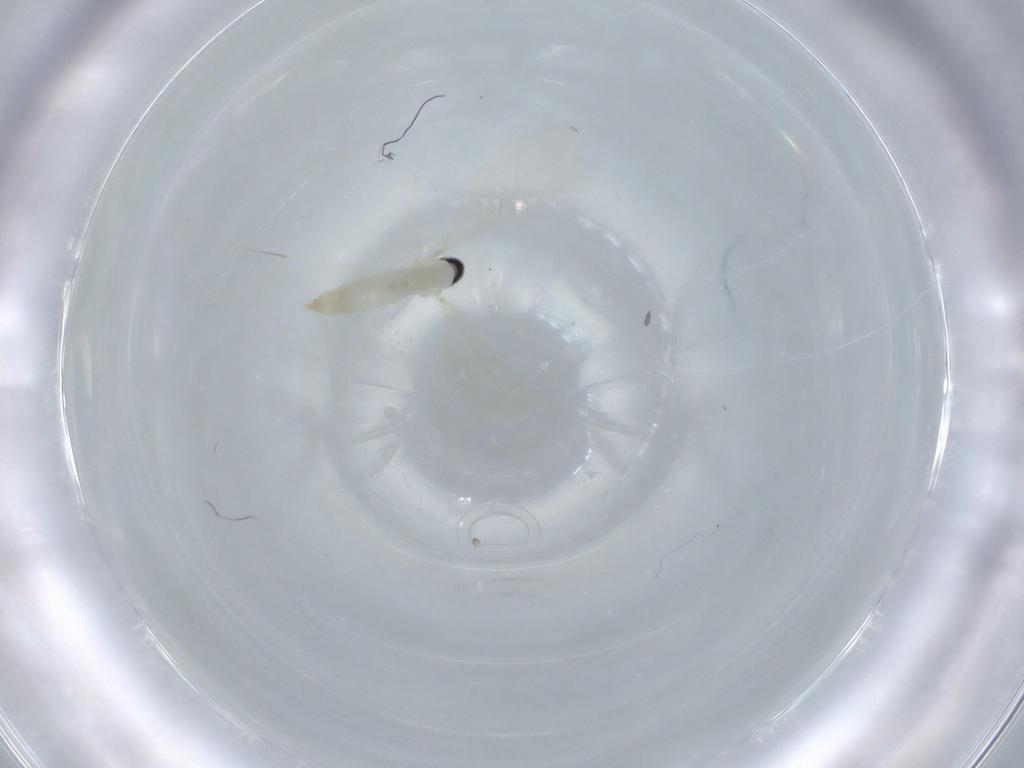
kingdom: Animalia
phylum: Arthropoda
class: Insecta
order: Diptera
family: Cecidomyiidae
